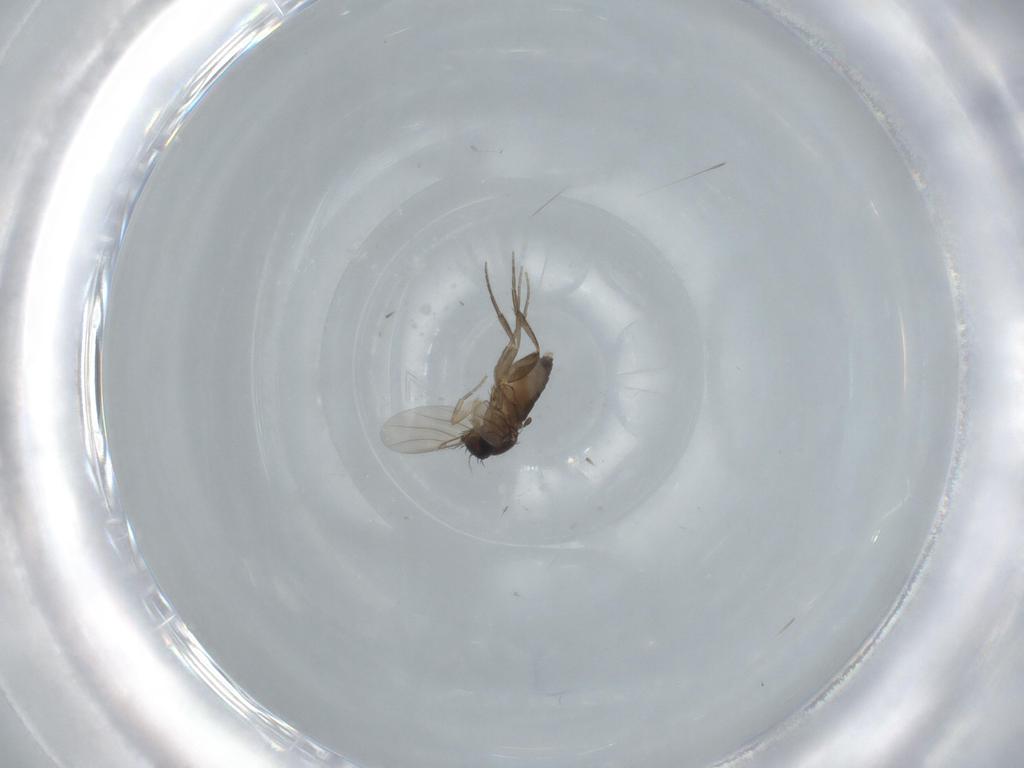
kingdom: Animalia
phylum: Arthropoda
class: Insecta
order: Diptera
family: Phoridae
